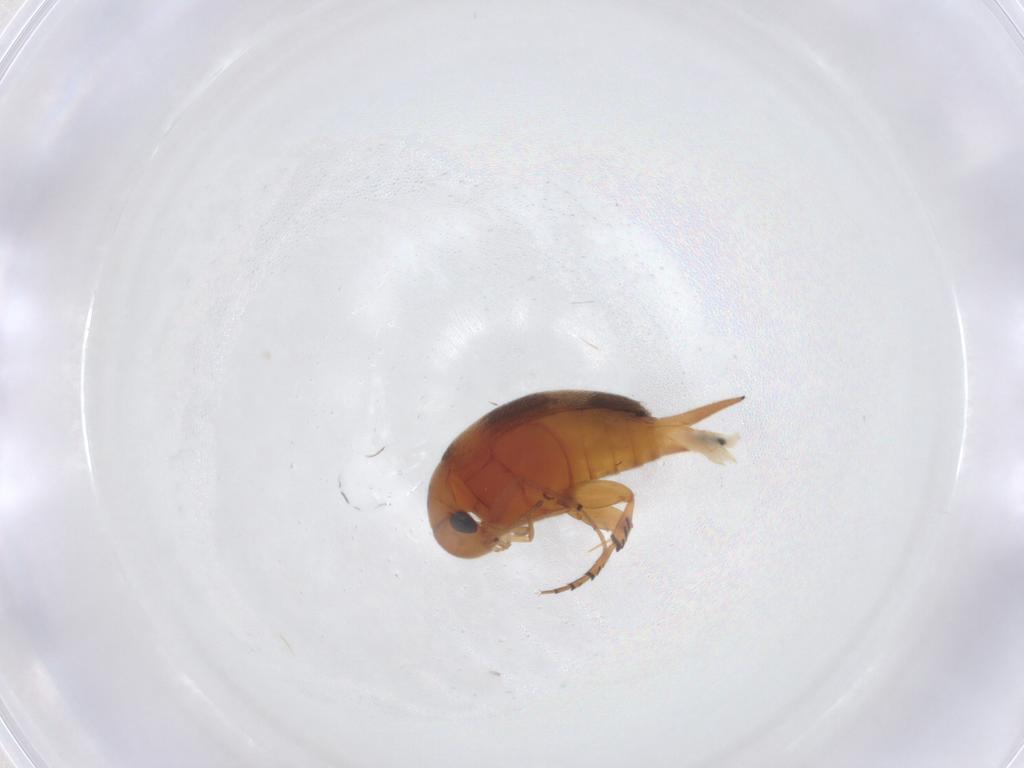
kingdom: Animalia
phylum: Arthropoda
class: Insecta
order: Coleoptera
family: Mordellidae
